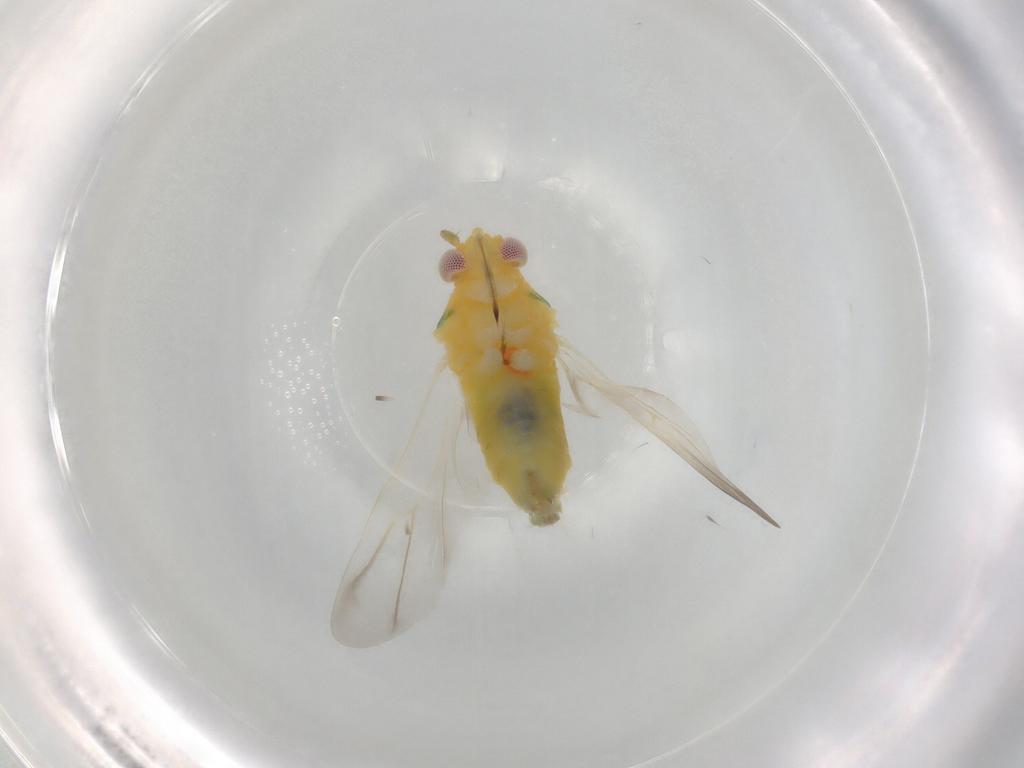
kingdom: Animalia
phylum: Arthropoda
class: Insecta
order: Hemiptera
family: Miridae
